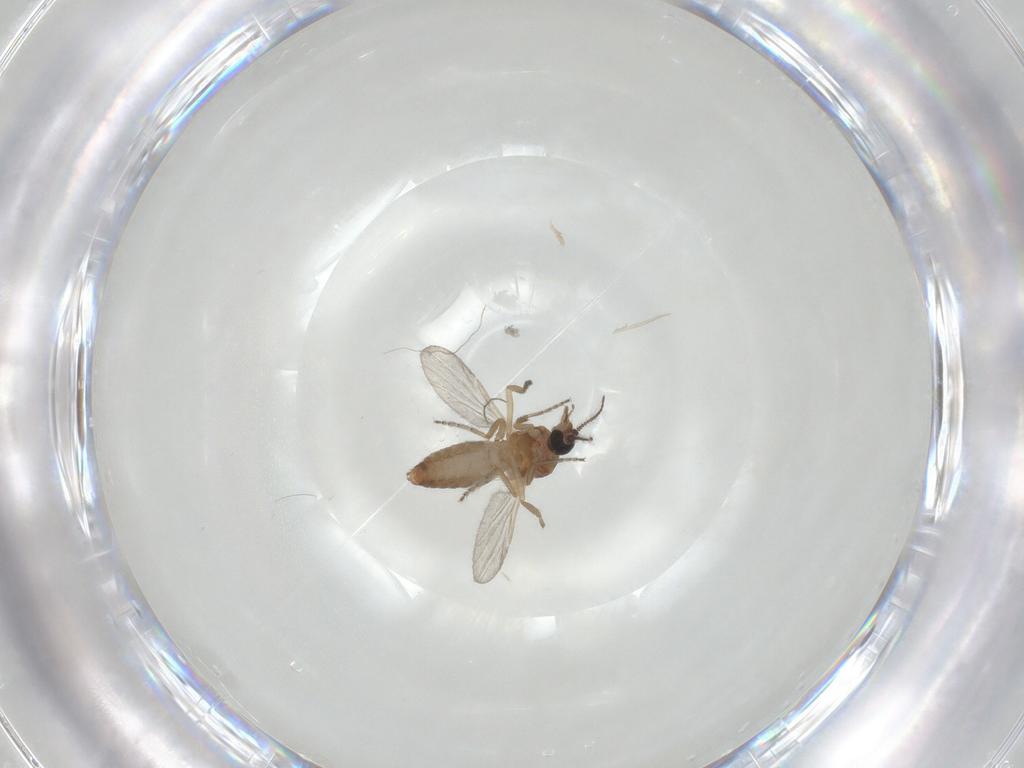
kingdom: Animalia
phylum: Arthropoda
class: Insecta
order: Diptera
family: Ceratopogonidae
